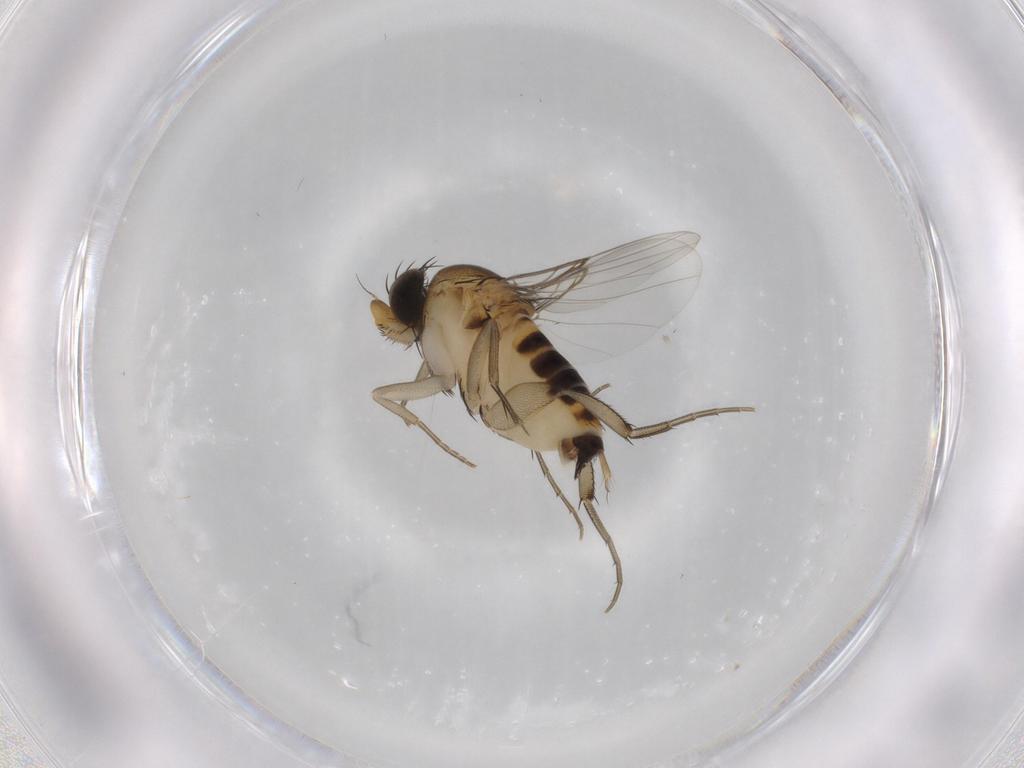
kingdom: Animalia
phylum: Arthropoda
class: Insecta
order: Diptera
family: Phoridae
